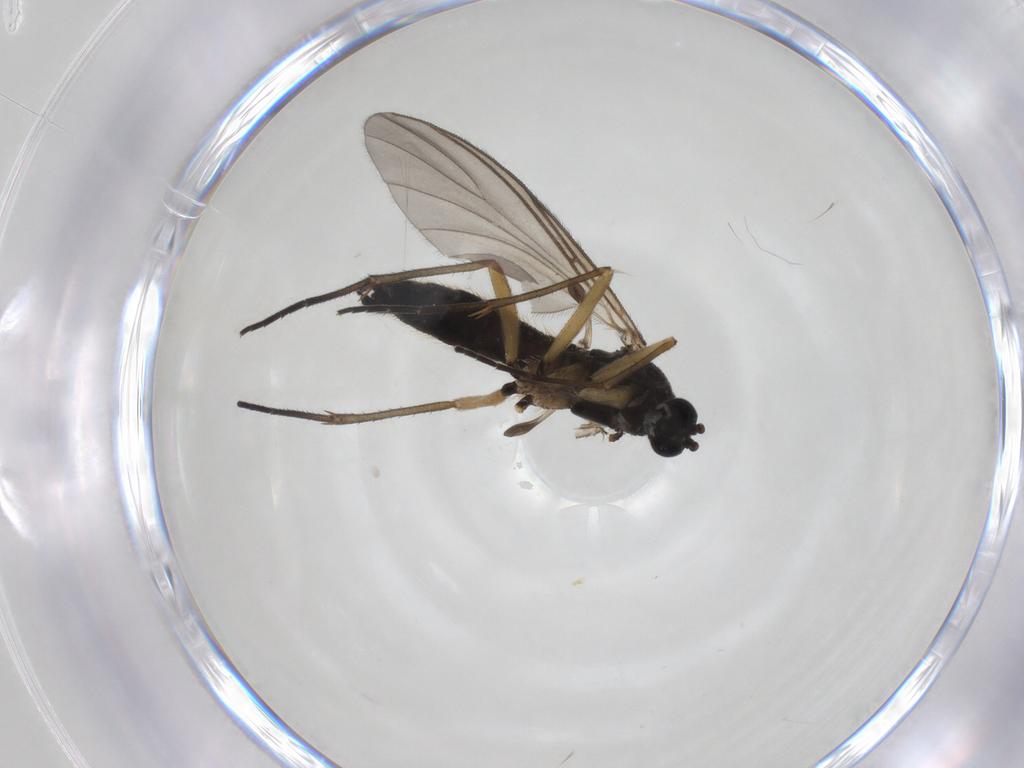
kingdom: Animalia
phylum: Arthropoda
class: Insecta
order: Diptera
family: Sciaridae
